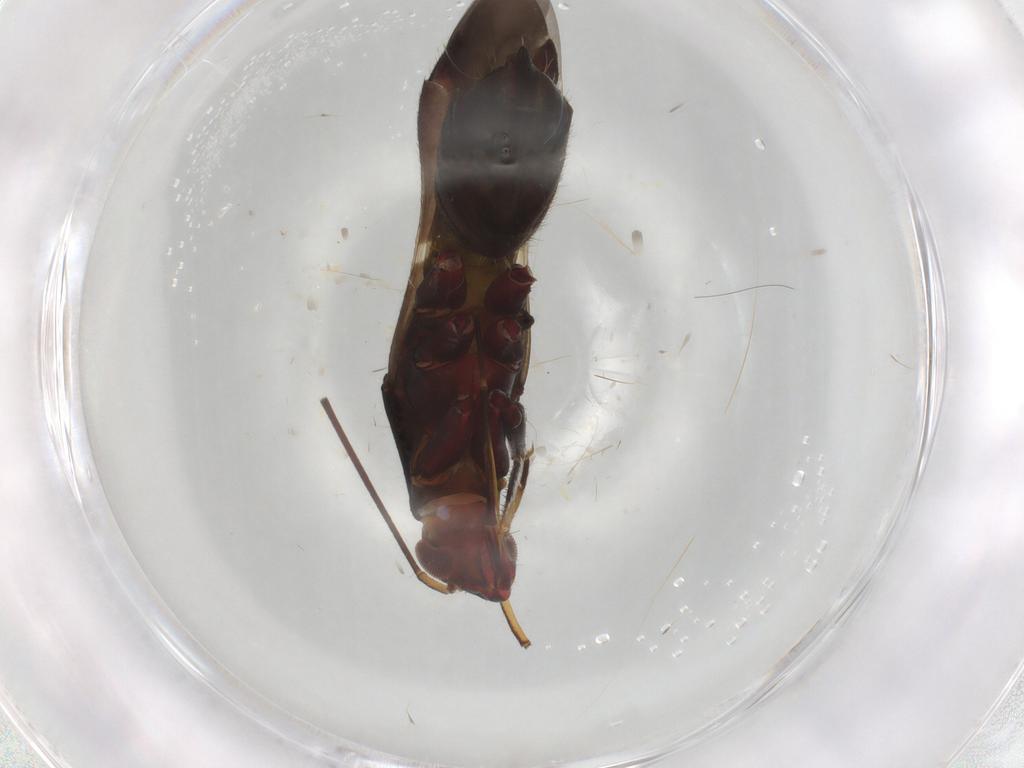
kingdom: Animalia
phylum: Arthropoda
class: Insecta
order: Hemiptera
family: Miridae
